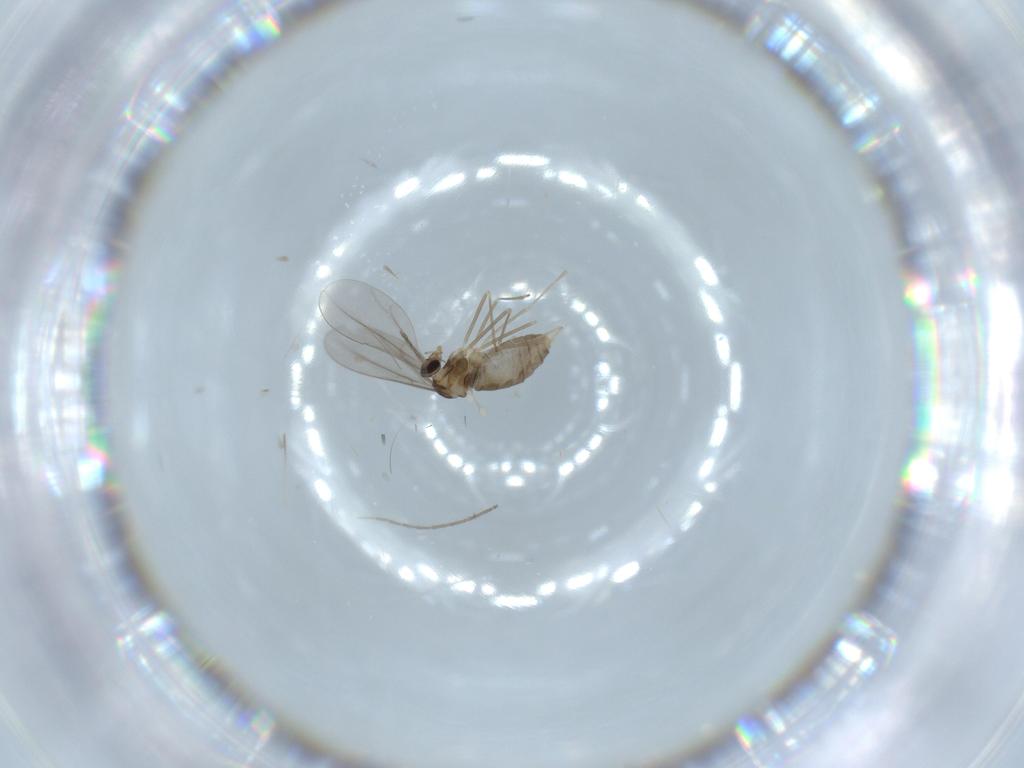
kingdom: Animalia
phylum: Arthropoda
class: Insecta
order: Diptera
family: Cecidomyiidae
